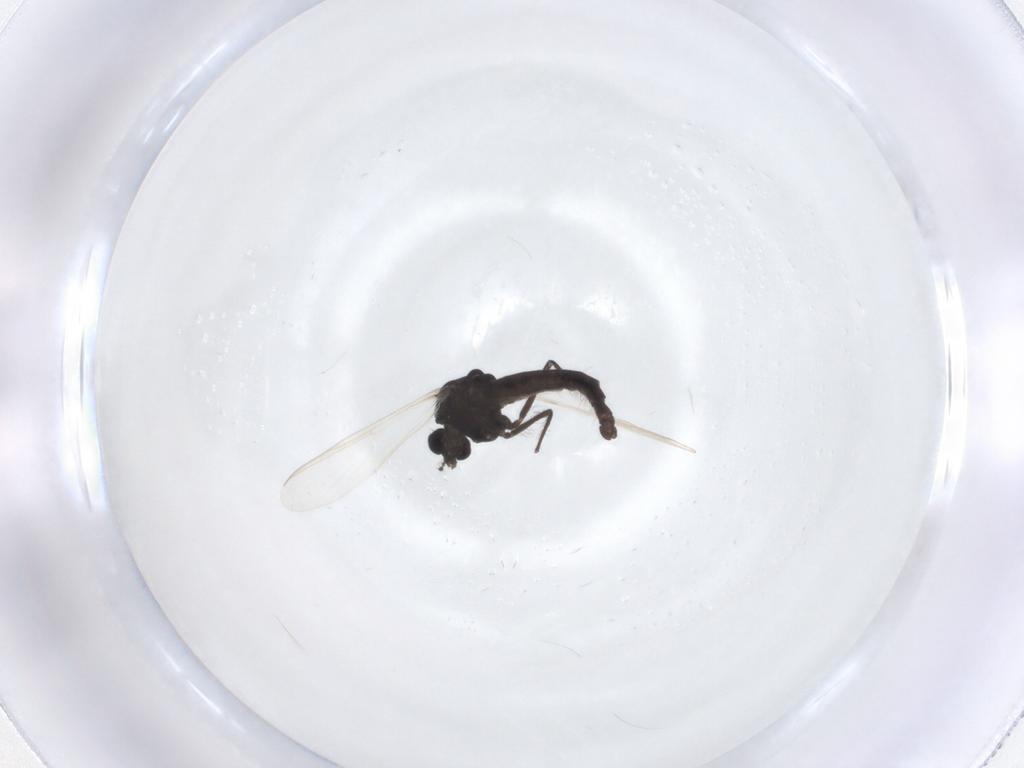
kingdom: Animalia
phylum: Arthropoda
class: Insecta
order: Diptera
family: Chironomidae
